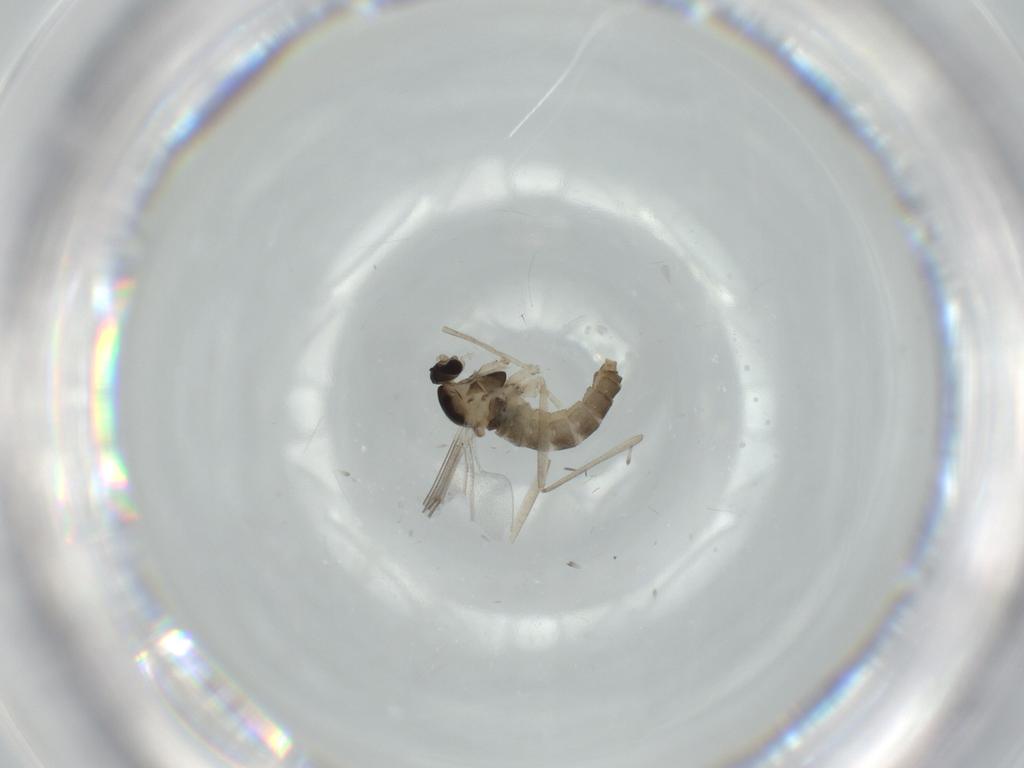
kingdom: Animalia
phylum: Arthropoda
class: Insecta
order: Diptera
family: Cecidomyiidae
